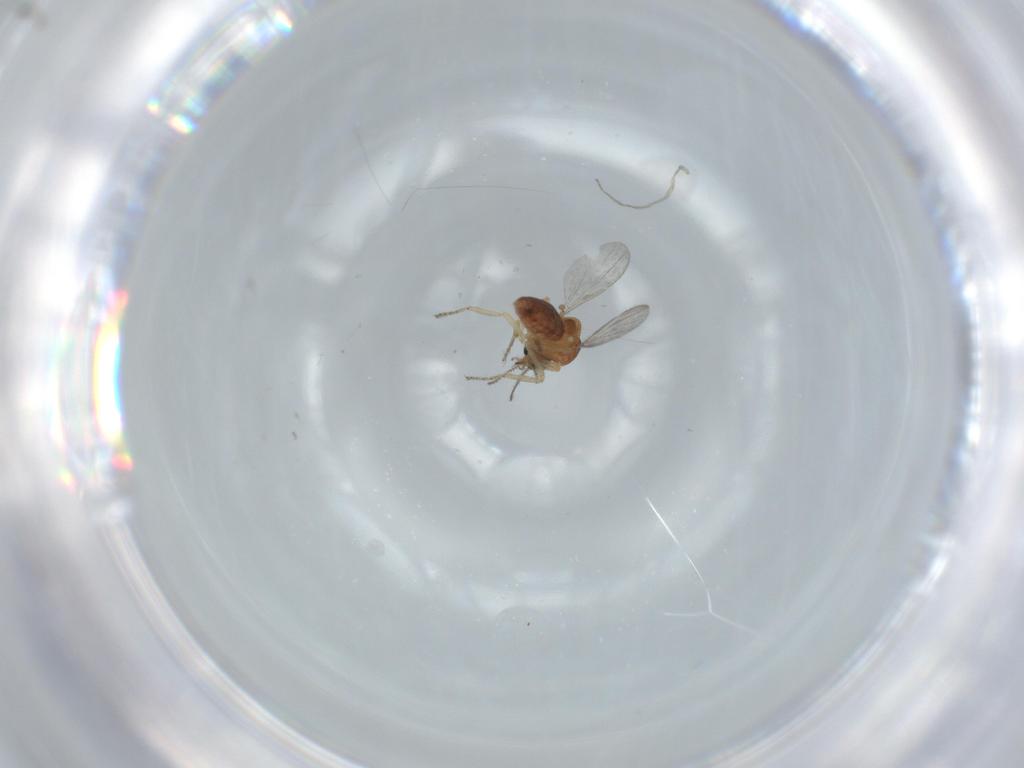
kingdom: Animalia
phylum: Arthropoda
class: Insecta
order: Diptera
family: Ceratopogonidae
